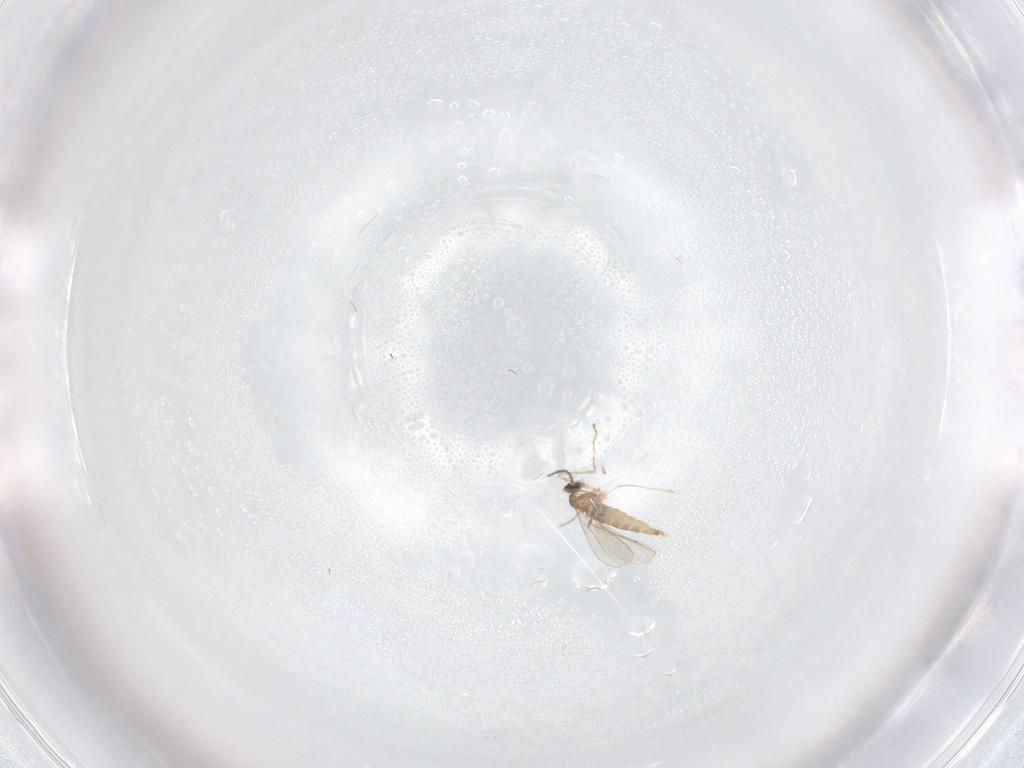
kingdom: Animalia
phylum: Arthropoda
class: Insecta
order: Diptera
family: Limoniidae
